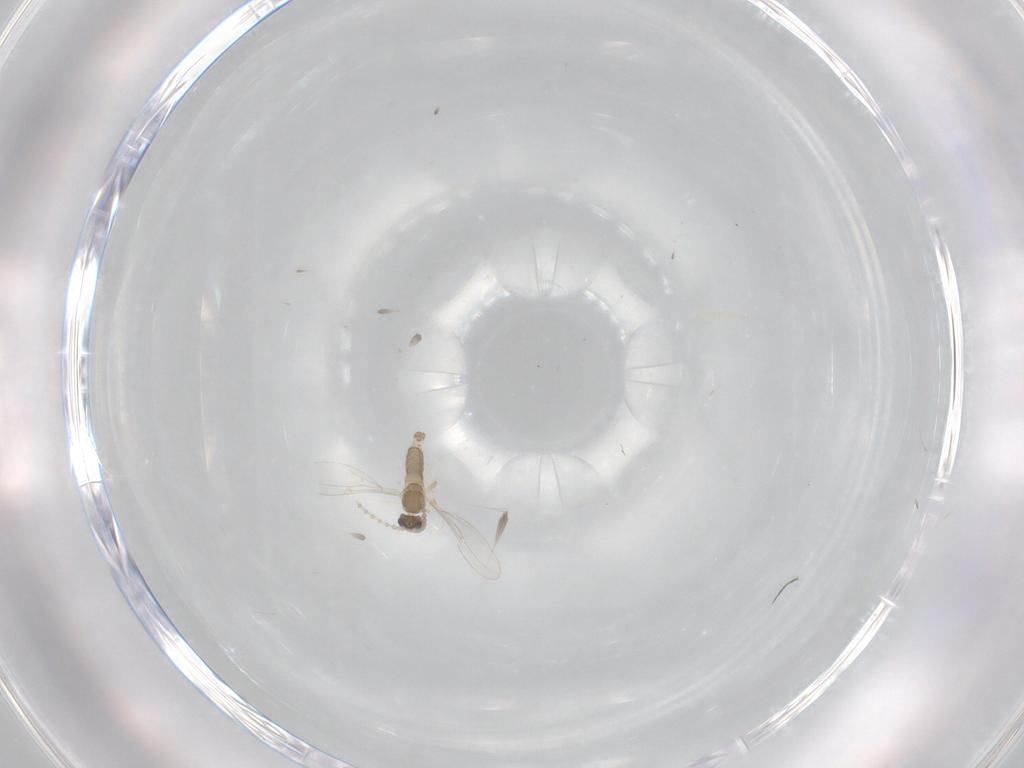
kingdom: Animalia
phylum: Arthropoda
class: Insecta
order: Diptera
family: Cecidomyiidae
